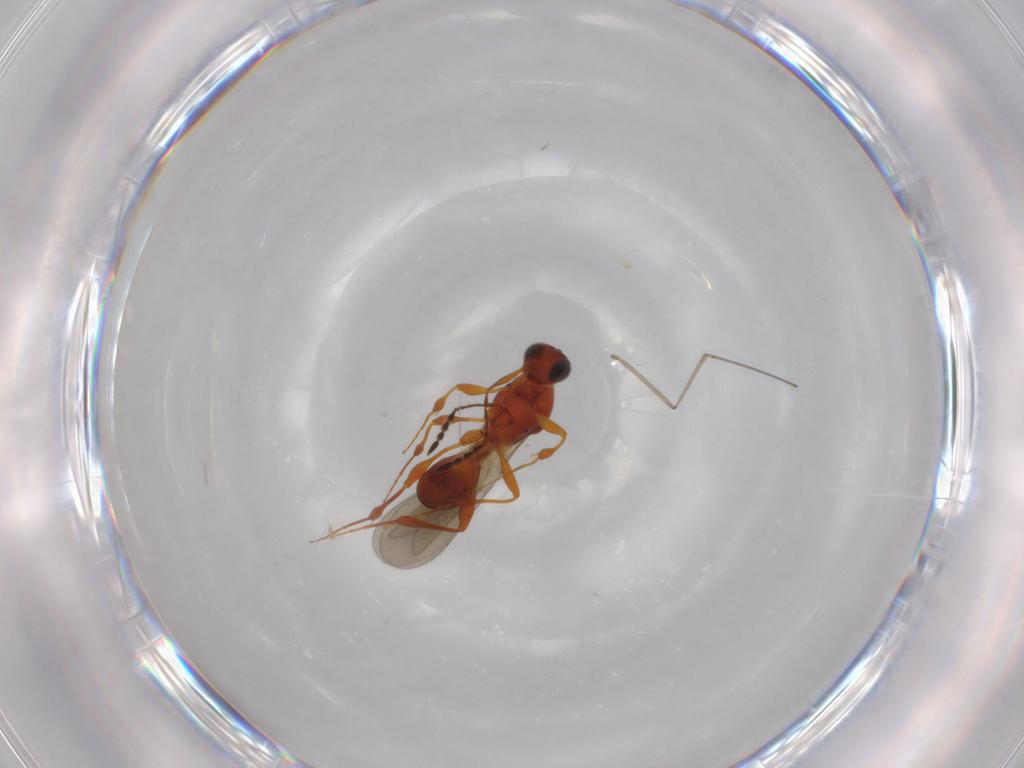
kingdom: Animalia
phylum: Arthropoda
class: Insecta
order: Hymenoptera
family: Platygastridae
